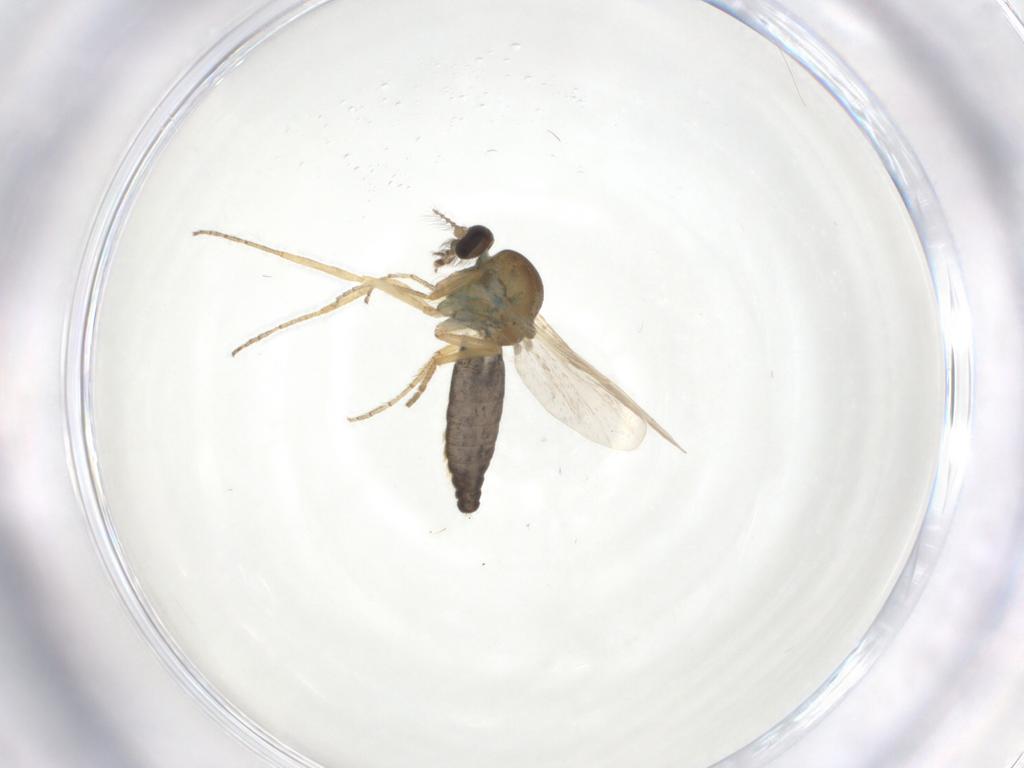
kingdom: Animalia
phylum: Arthropoda
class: Insecta
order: Diptera
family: Ceratopogonidae
